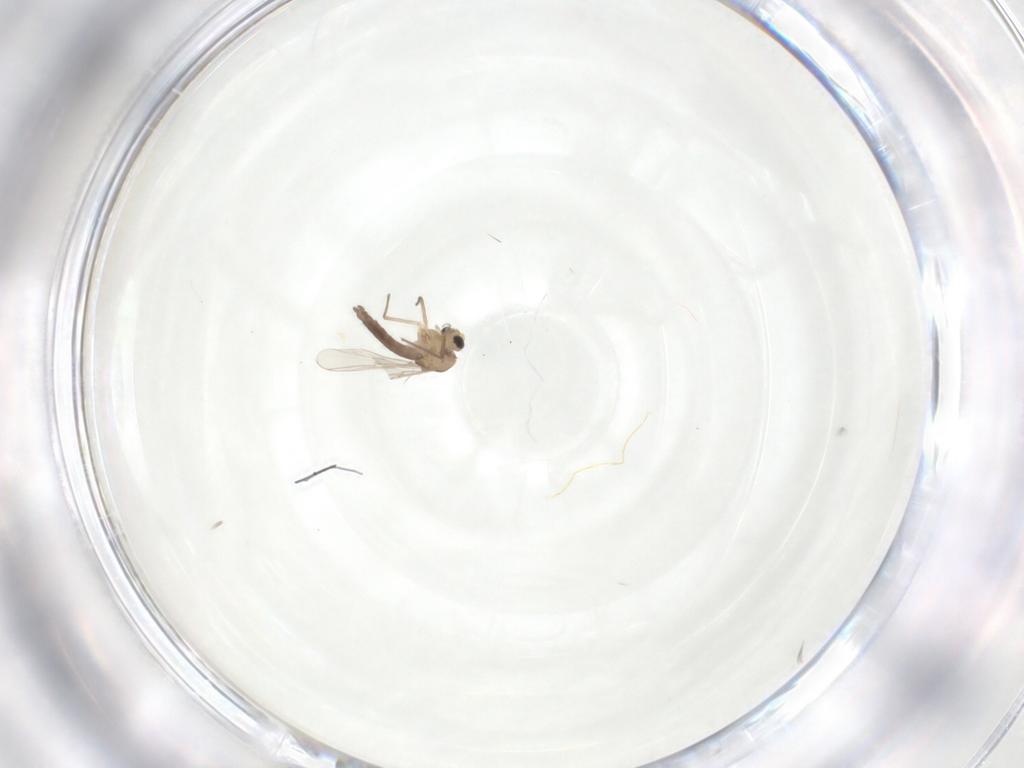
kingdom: Animalia
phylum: Arthropoda
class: Insecta
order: Diptera
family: Chironomidae
